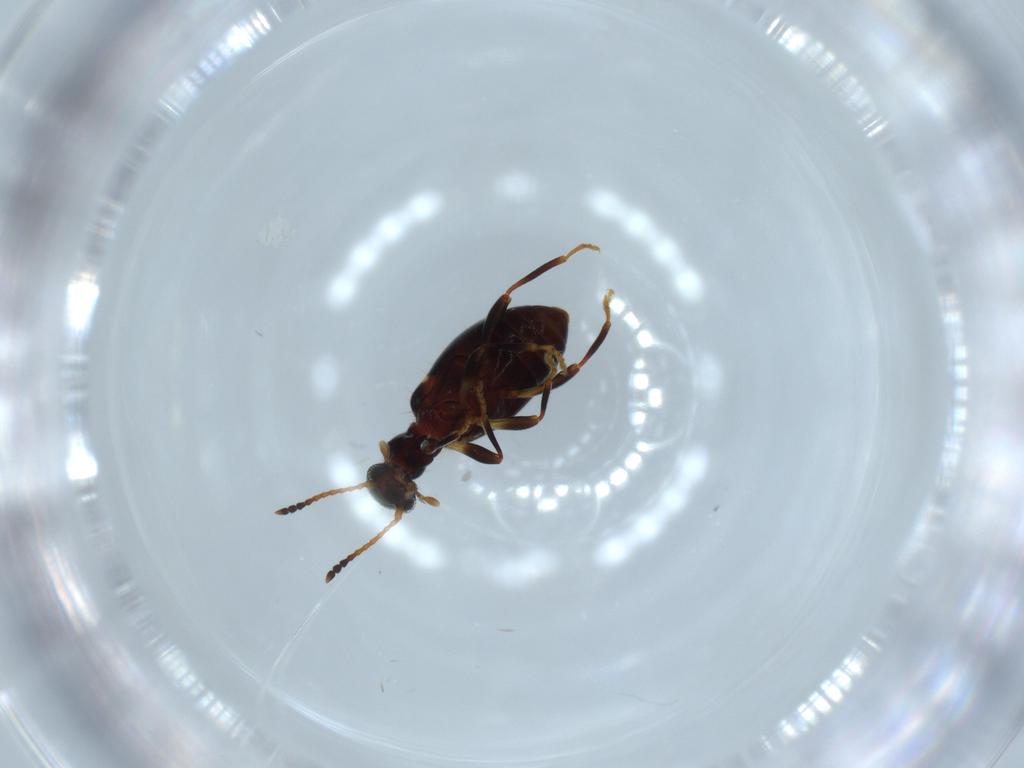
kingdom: Animalia
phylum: Arthropoda
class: Insecta
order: Coleoptera
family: Anthicidae
